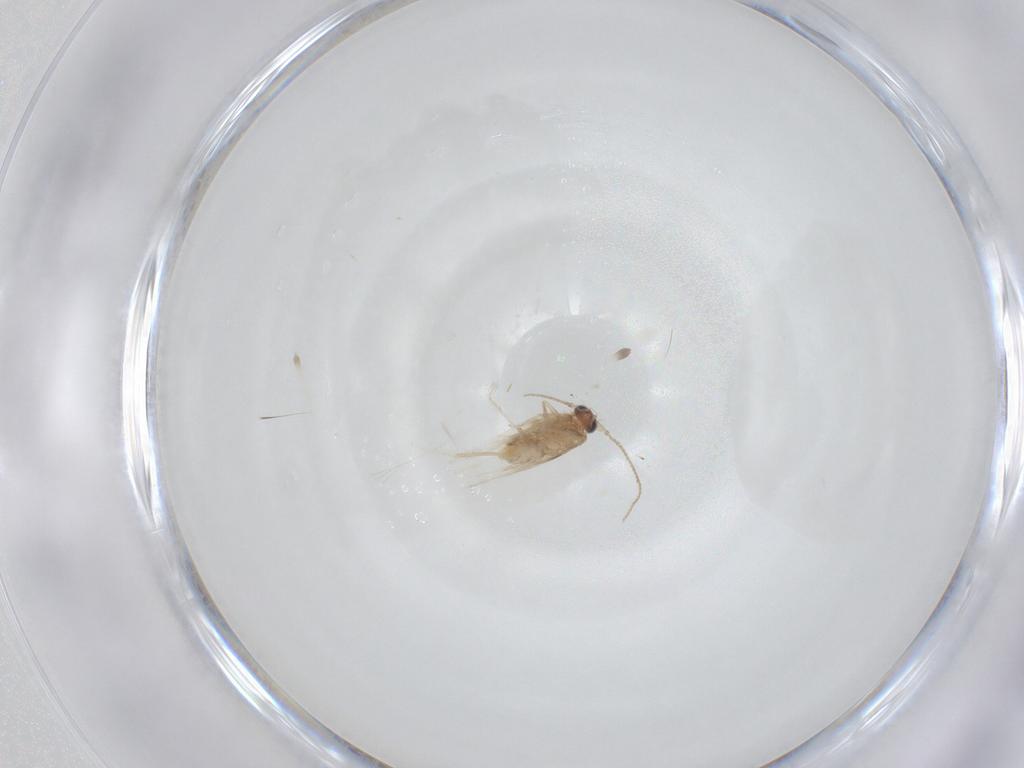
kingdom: Animalia
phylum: Arthropoda
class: Insecta
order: Lepidoptera
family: Nepticulidae
